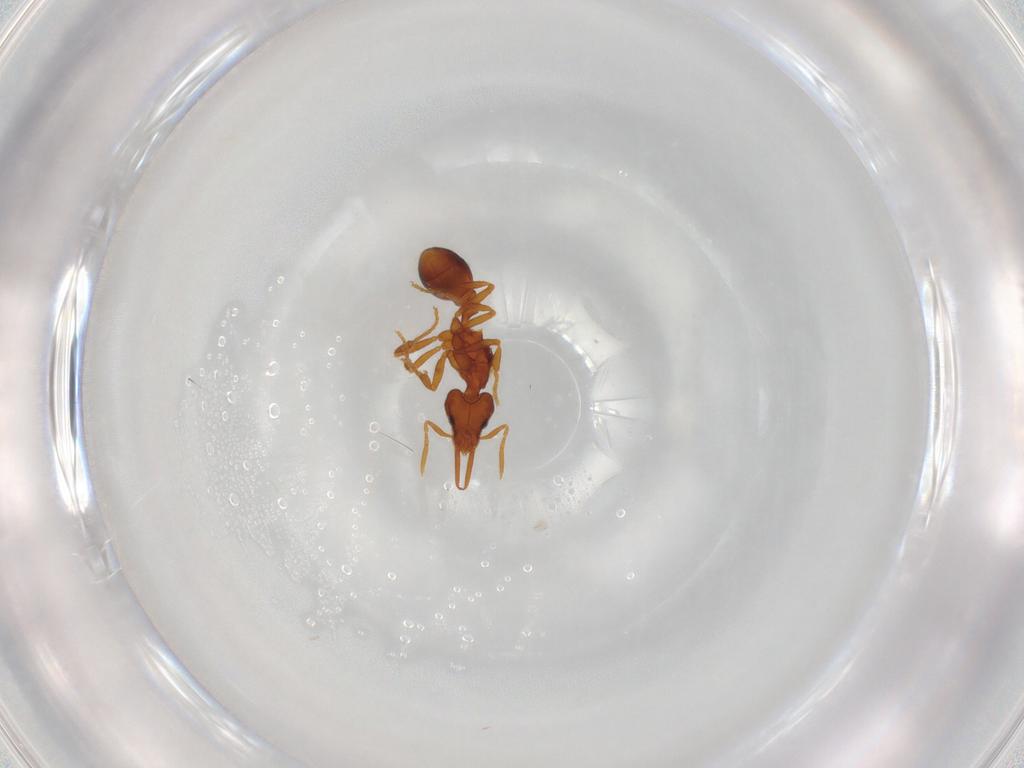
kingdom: Animalia
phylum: Arthropoda
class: Insecta
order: Hymenoptera
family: Formicidae
